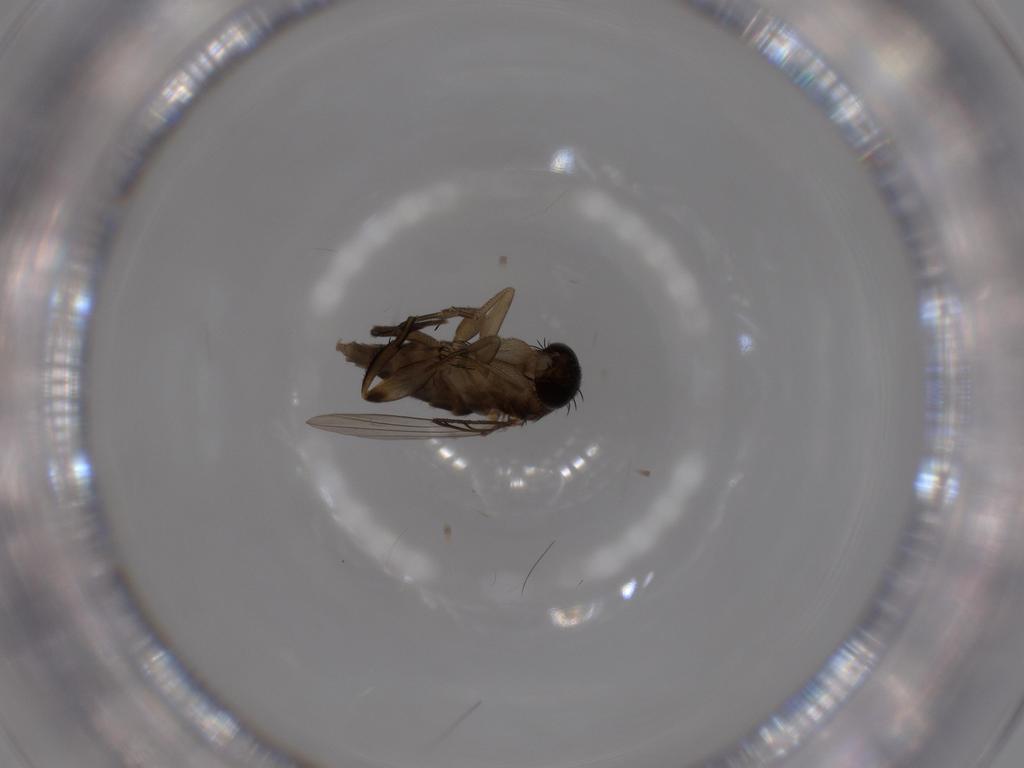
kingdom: Animalia
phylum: Arthropoda
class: Insecta
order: Diptera
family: Phoridae
